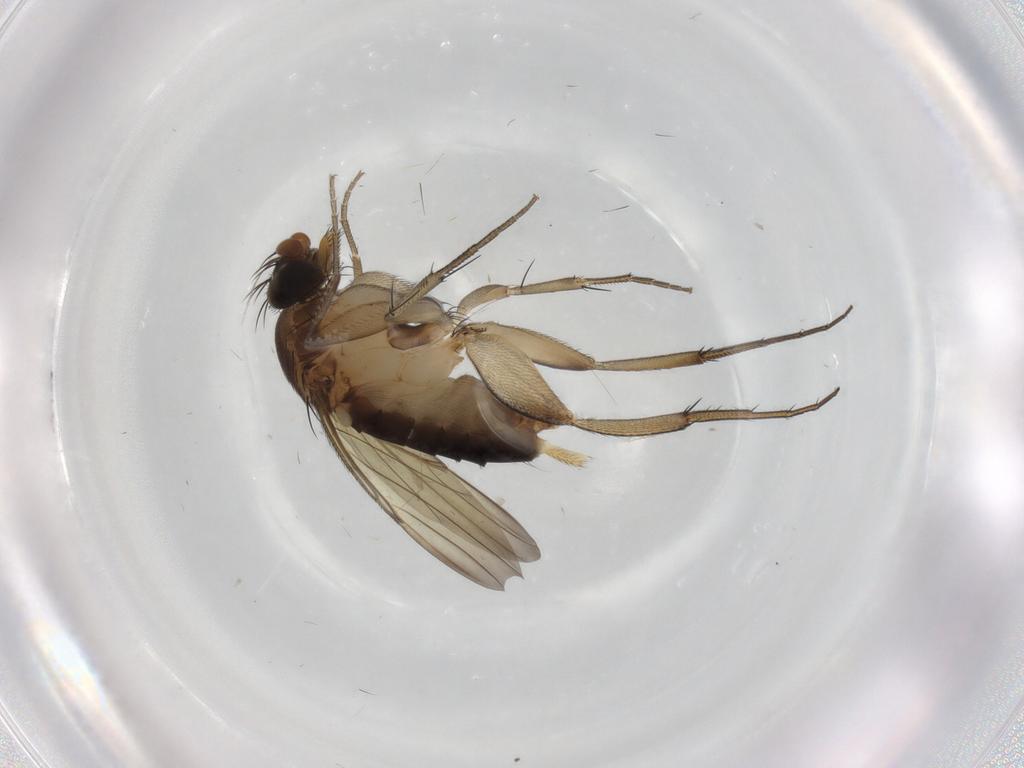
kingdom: Animalia
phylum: Arthropoda
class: Insecta
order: Diptera
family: Phoridae
